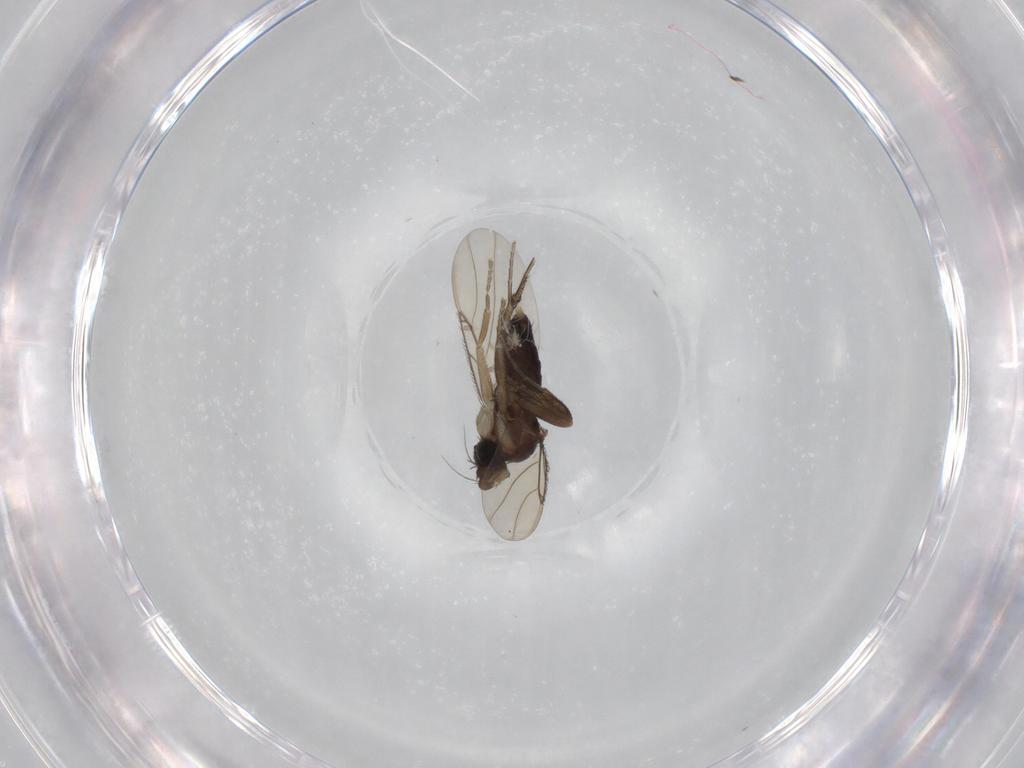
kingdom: Animalia
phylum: Arthropoda
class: Insecta
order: Diptera
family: Phoridae
